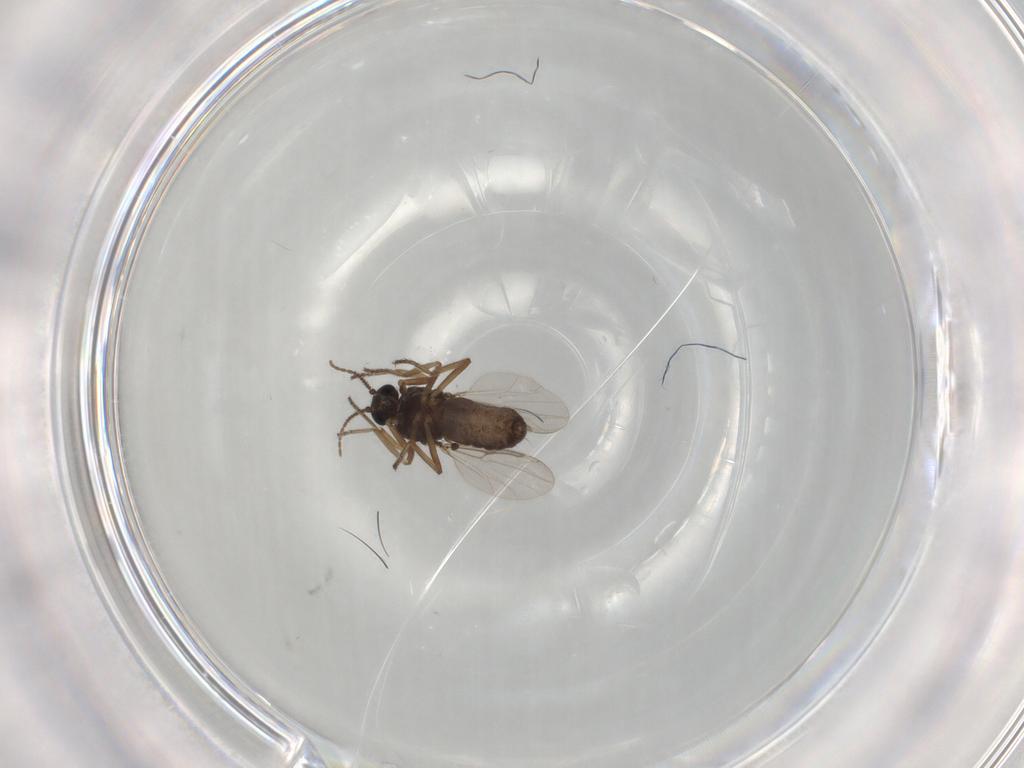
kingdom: Animalia
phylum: Arthropoda
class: Insecta
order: Diptera
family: Ceratopogonidae
